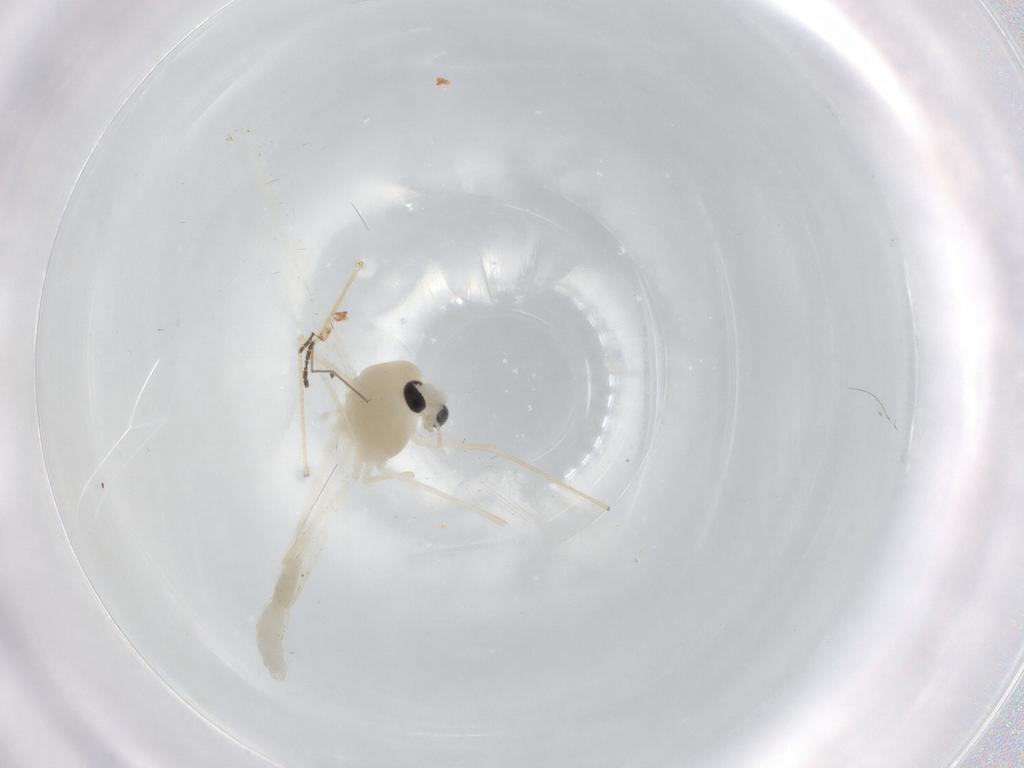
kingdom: Animalia
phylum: Arthropoda
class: Insecta
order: Diptera
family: Chironomidae
